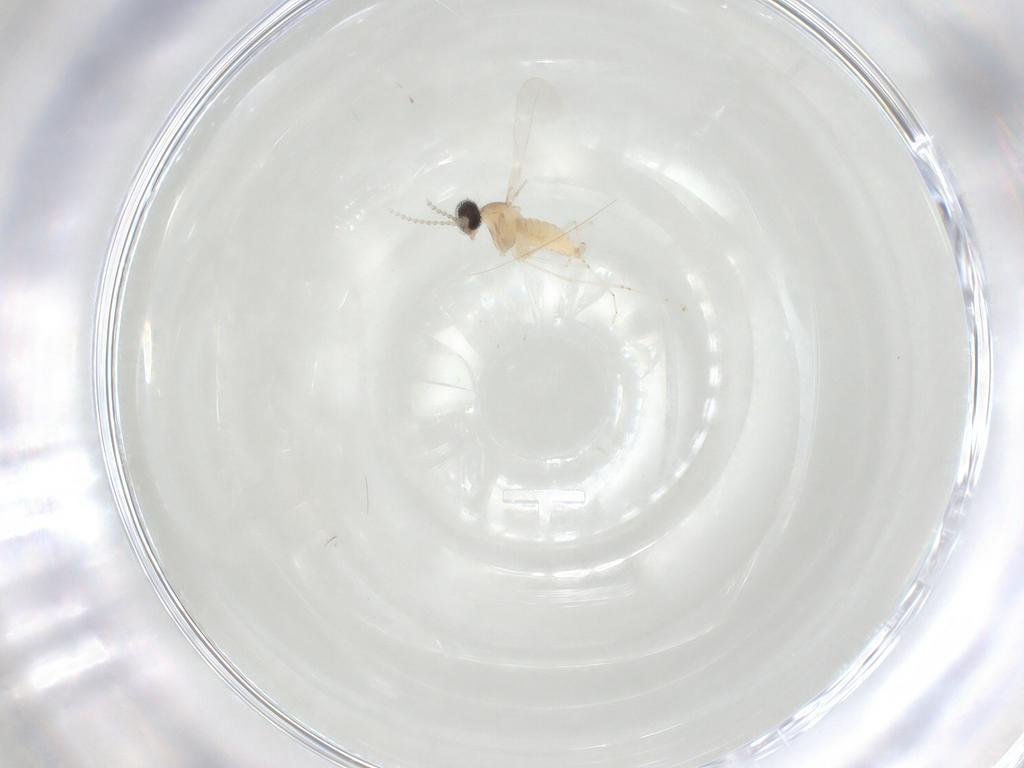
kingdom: Animalia
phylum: Arthropoda
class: Insecta
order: Diptera
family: Cecidomyiidae
